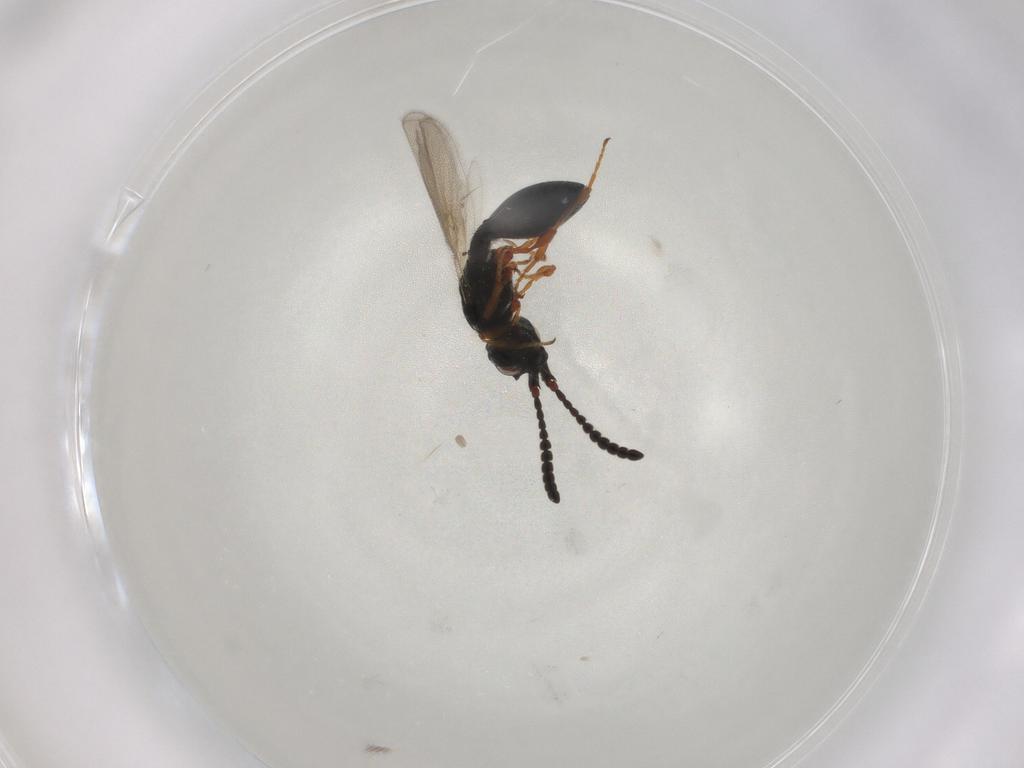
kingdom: Animalia
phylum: Arthropoda
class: Insecta
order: Hymenoptera
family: Diapriidae
